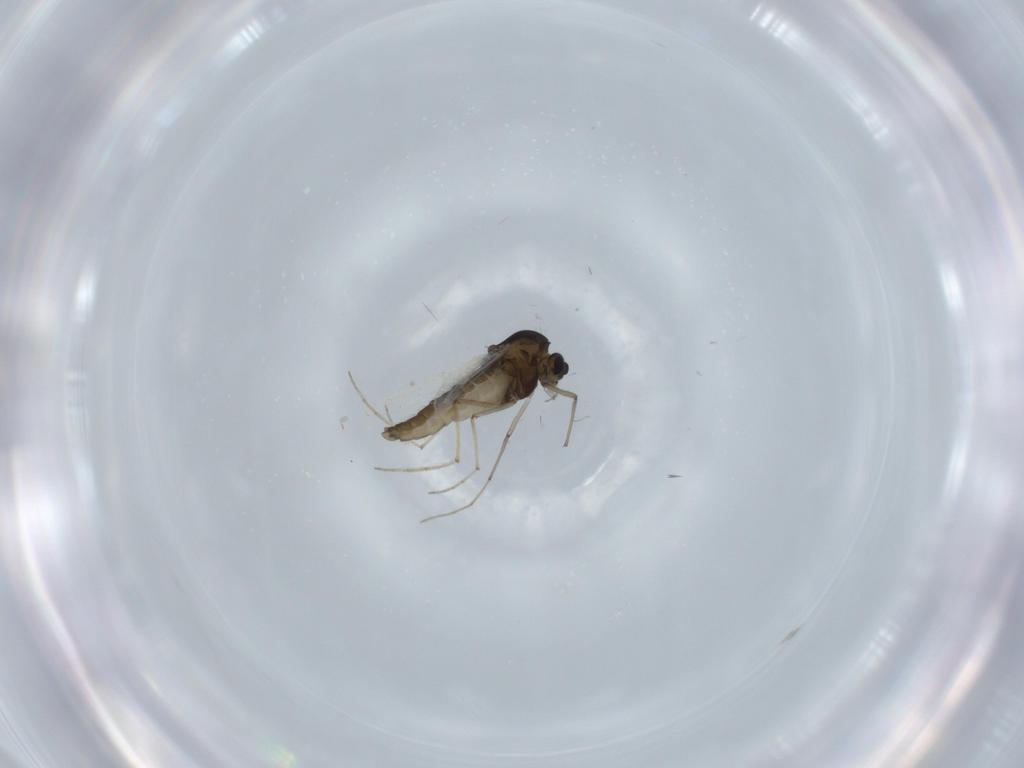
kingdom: Animalia
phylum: Arthropoda
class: Insecta
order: Diptera
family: Chironomidae
